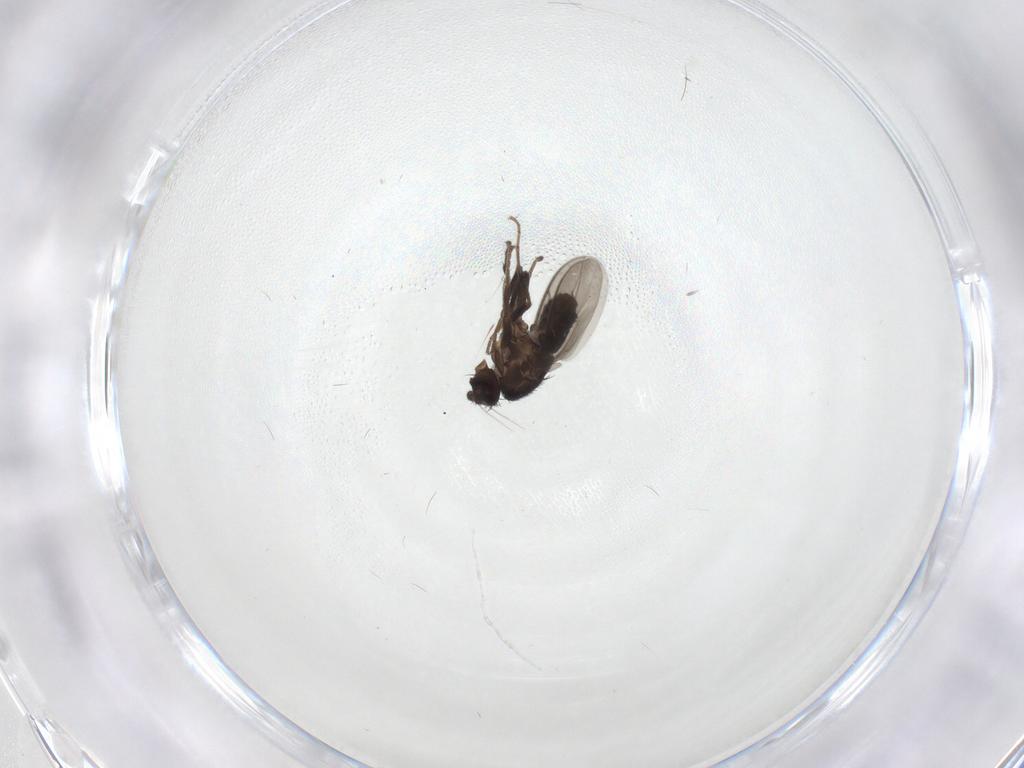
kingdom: Animalia
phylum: Arthropoda
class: Insecta
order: Diptera
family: Sphaeroceridae
